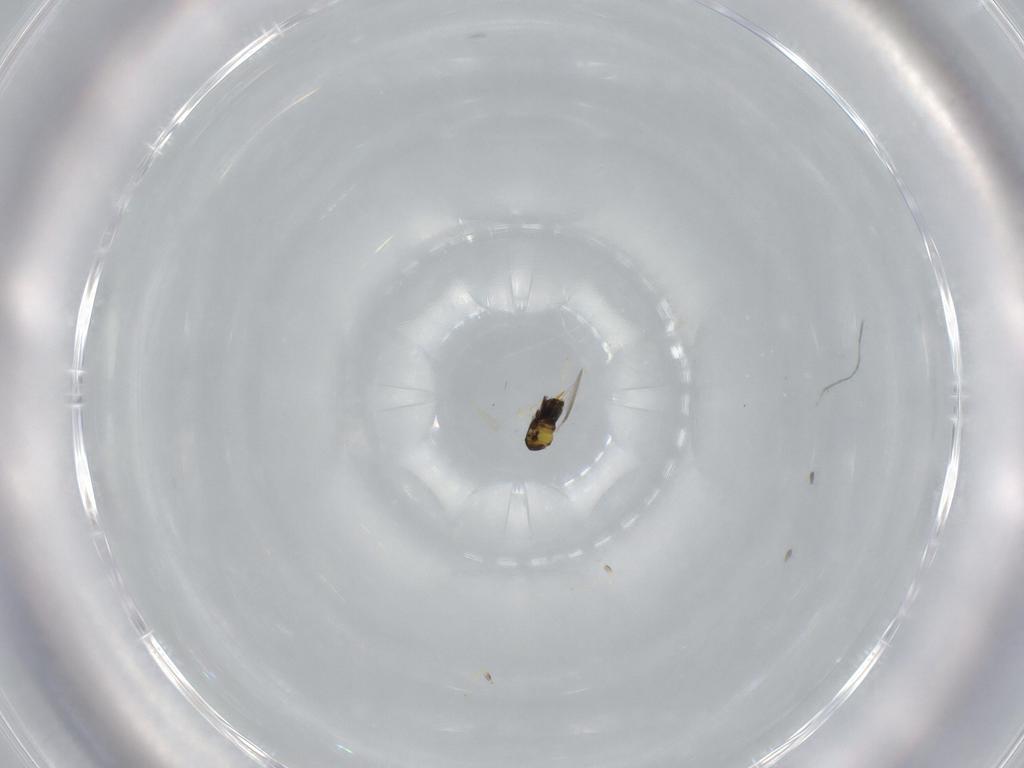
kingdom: Animalia
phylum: Arthropoda
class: Insecta
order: Hymenoptera
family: Aphelinidae
